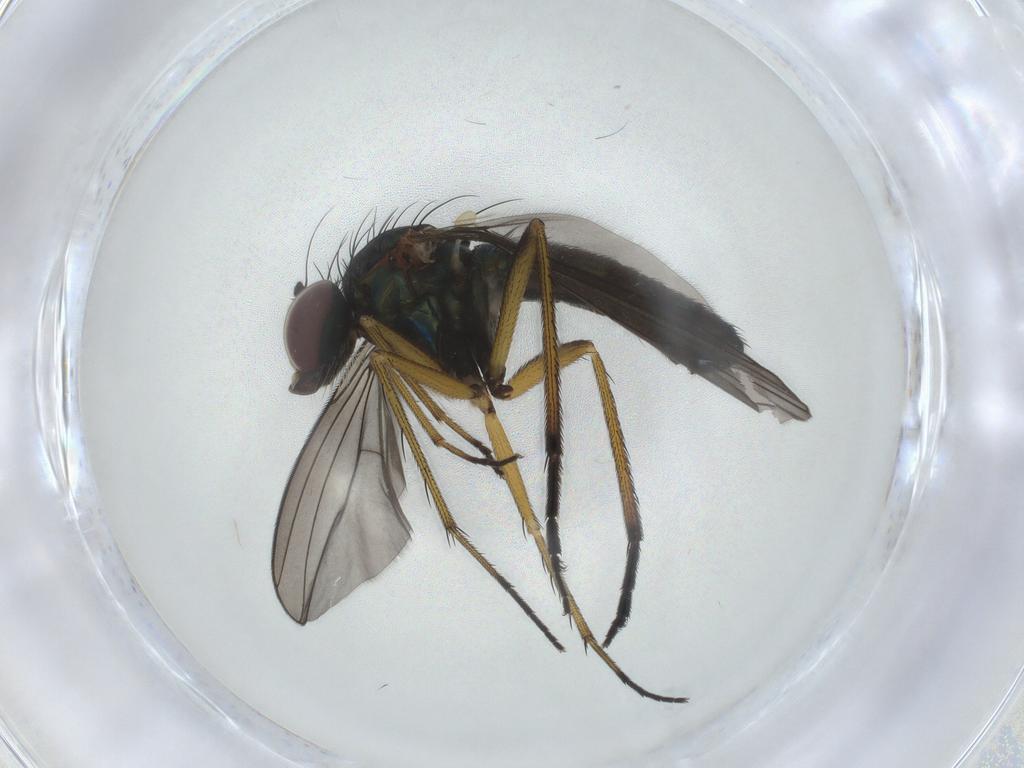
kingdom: Animalia
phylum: Arthropoda
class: Insecta
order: Diptera
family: Dolichopodidae
